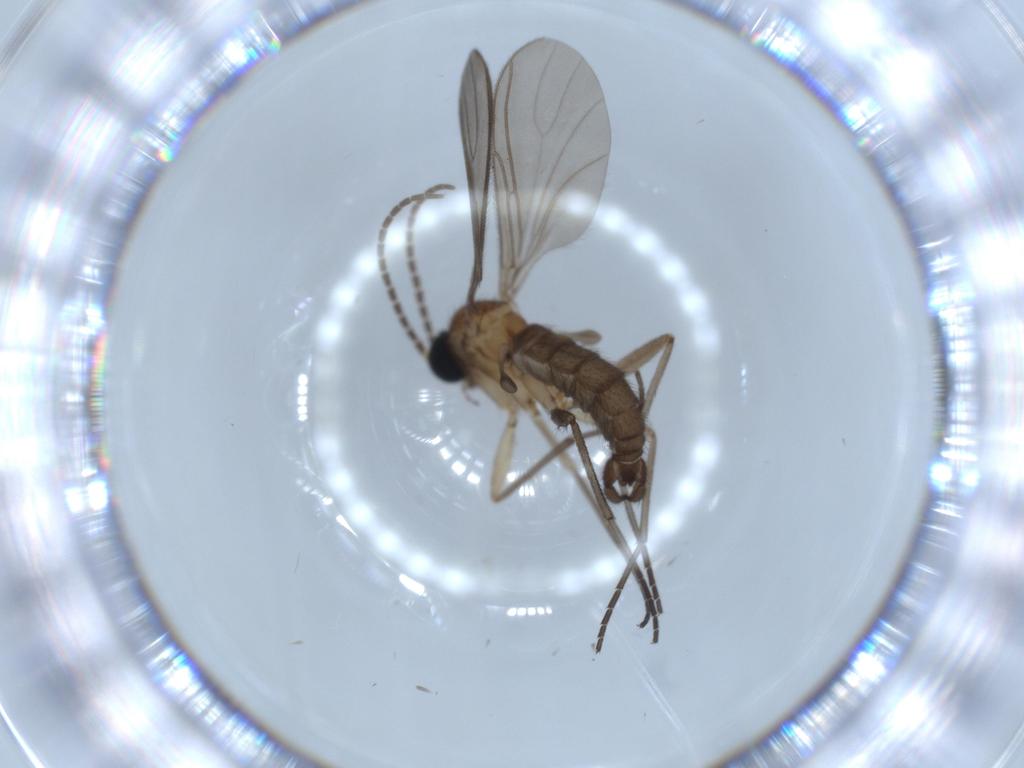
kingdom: Animalia
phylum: Arthropoda
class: Insecta
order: Diptera
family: Sciaridae
